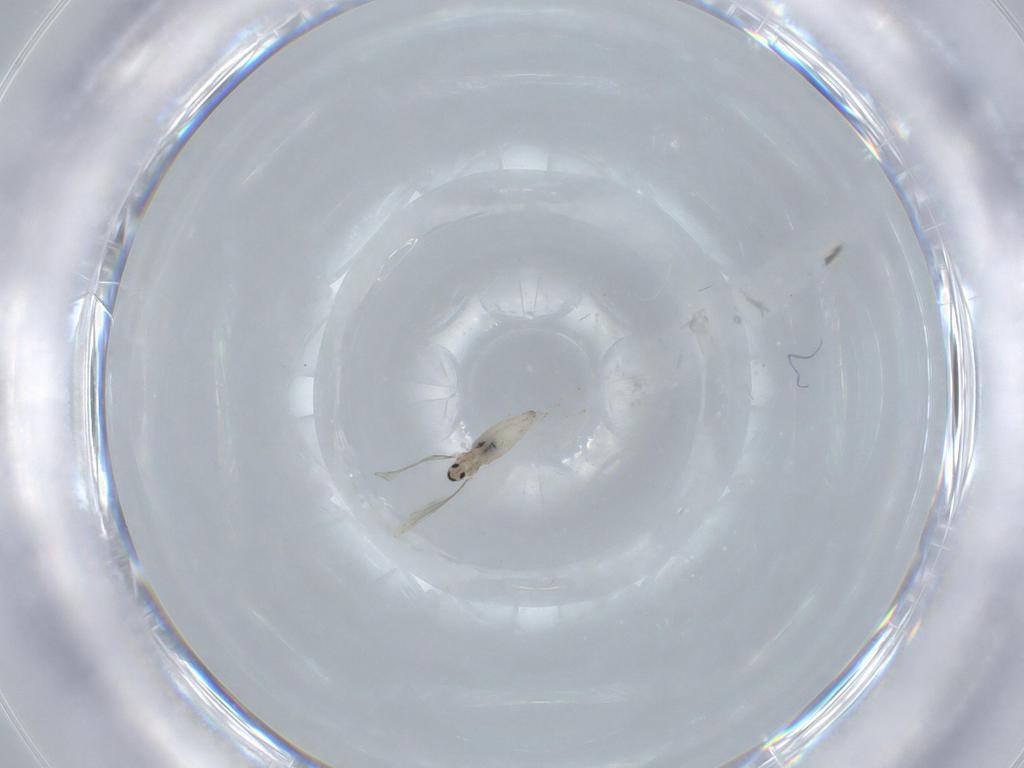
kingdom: Animalia
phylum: Arthropoda
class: Insecta
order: Diptera
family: Cecidomyiidae
